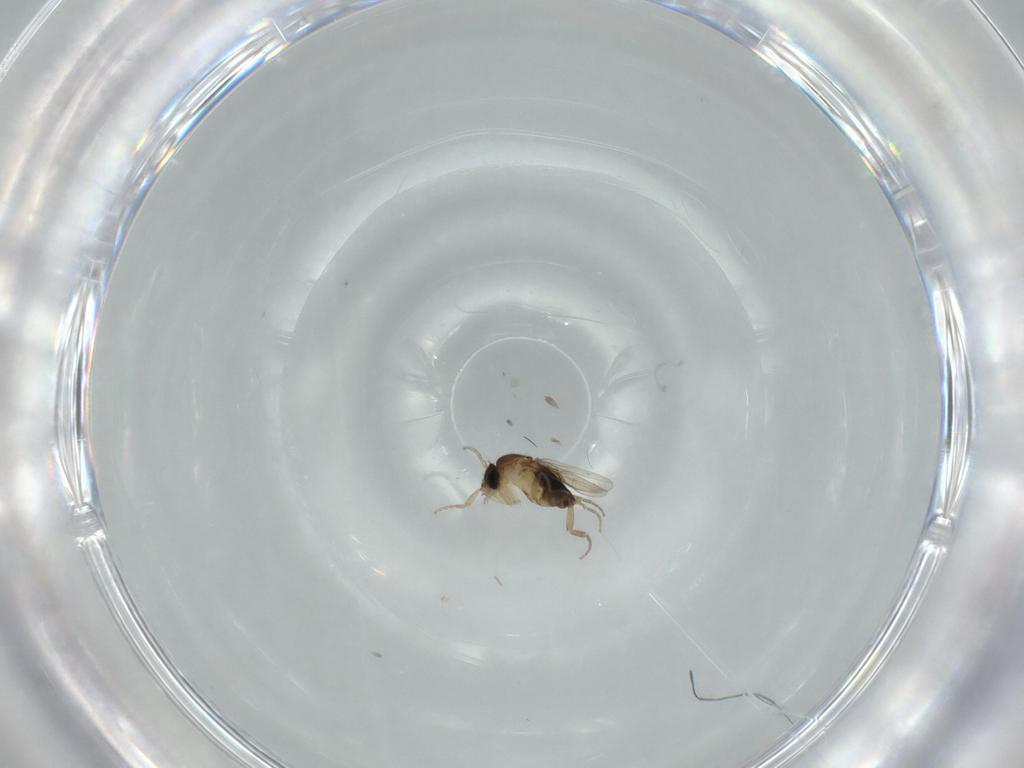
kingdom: Animalia
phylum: Arthropoda
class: Insecta
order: Diptera
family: Phoridae
